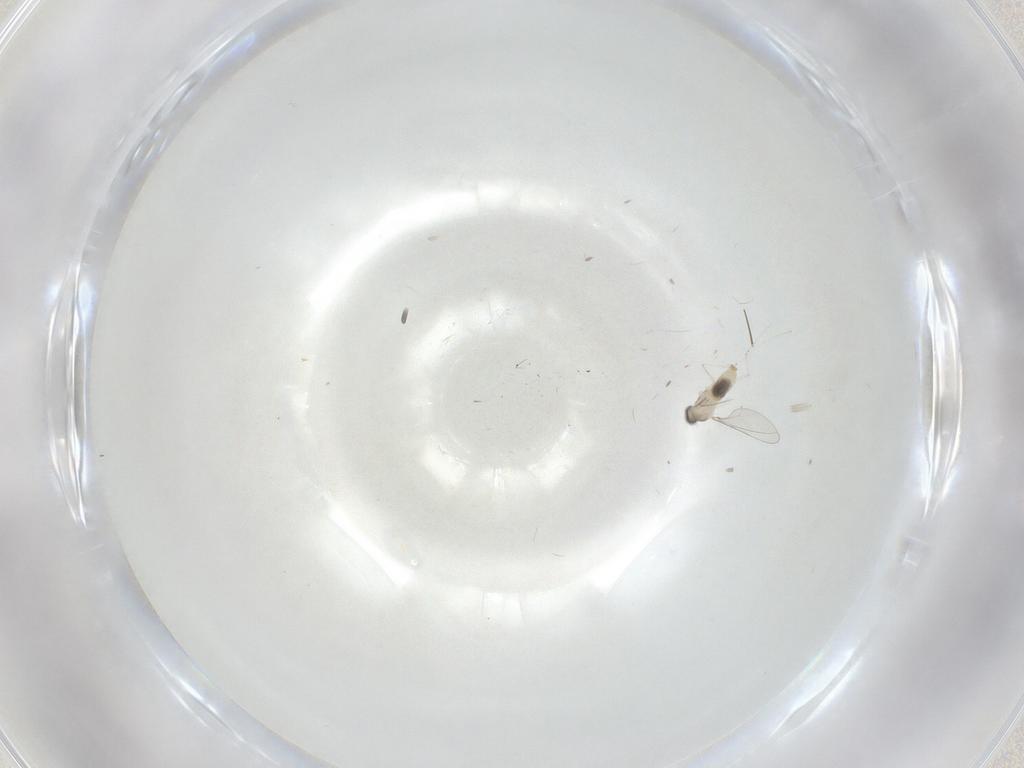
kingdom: Animalia
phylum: Arthropoda
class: Insecta
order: Diptera
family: Cecidomyiidae
